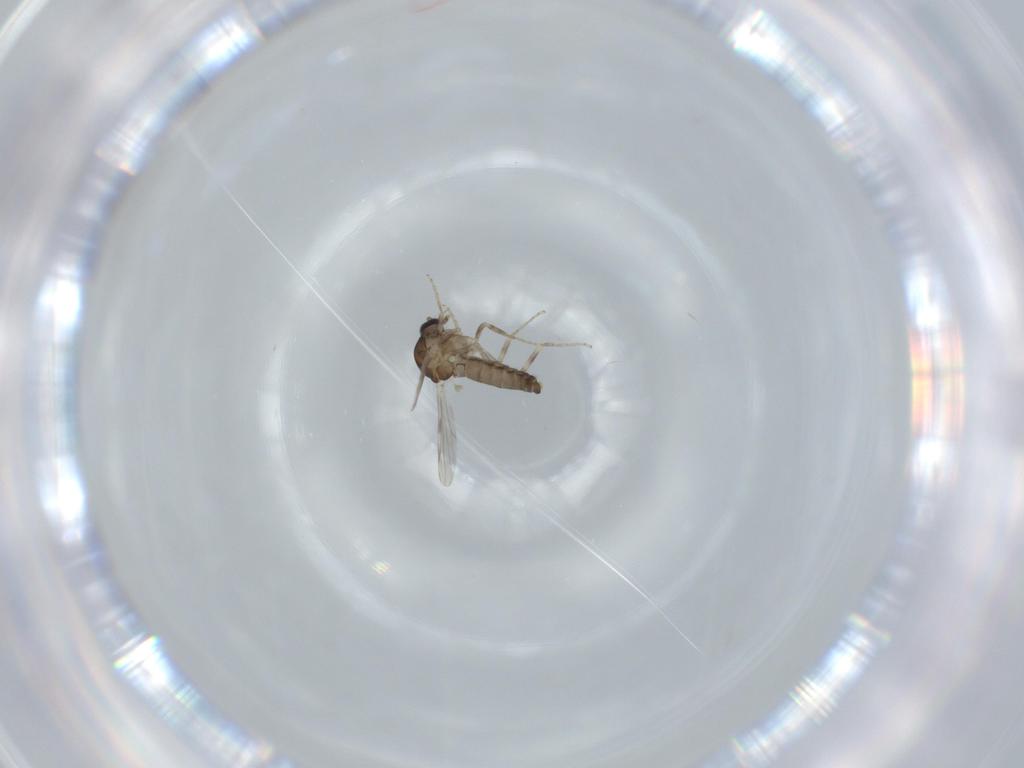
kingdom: Animalia
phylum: Arthropoda
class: Insecta
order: Diptera
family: Ceratopogonidae
